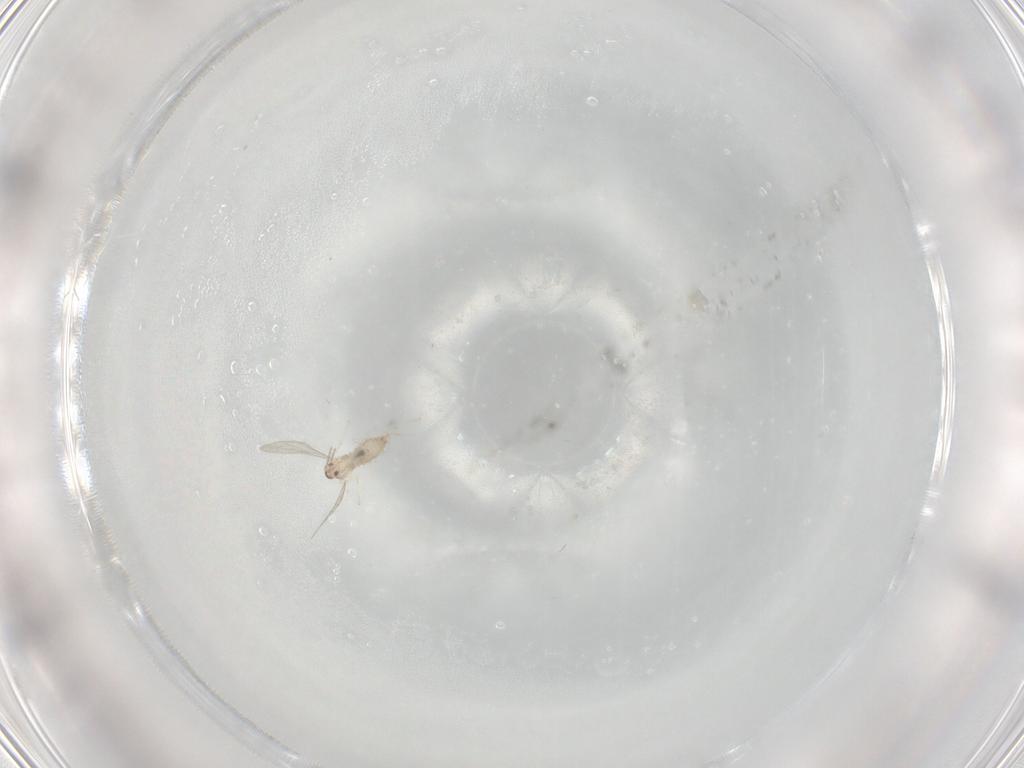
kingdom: Animalia
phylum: Arthropoda
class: Insecta
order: Diptera
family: Cecidomyiidae
